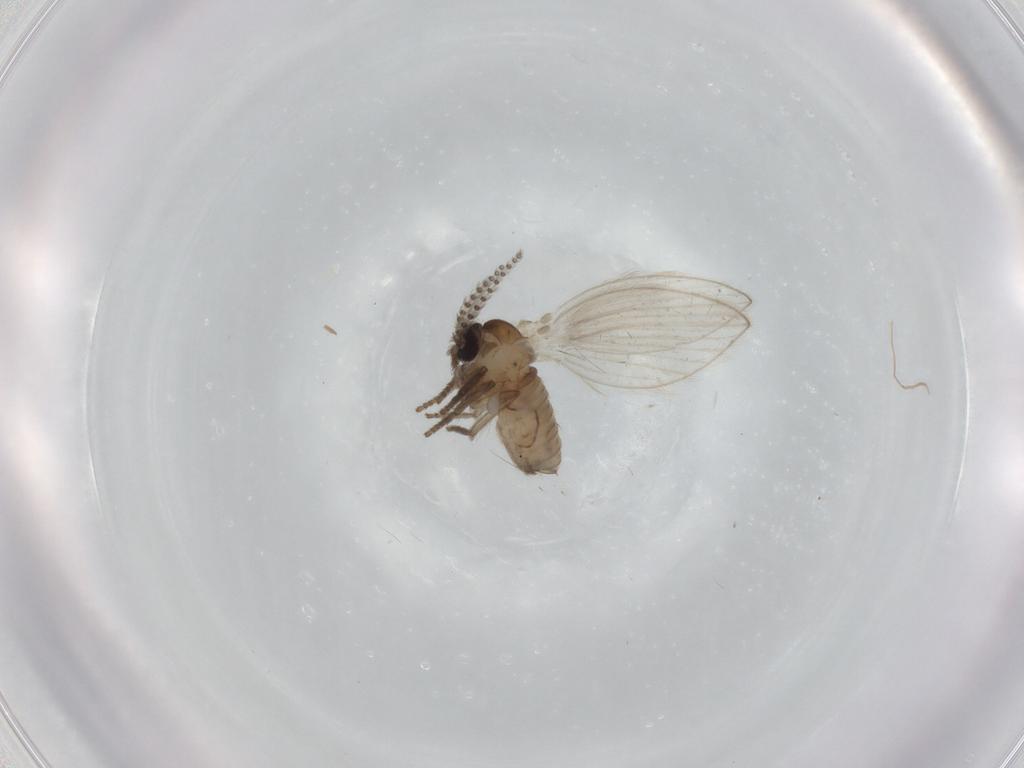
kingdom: Animalia
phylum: Arthropoda
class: Insecta
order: Diptera
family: Psychodidae
